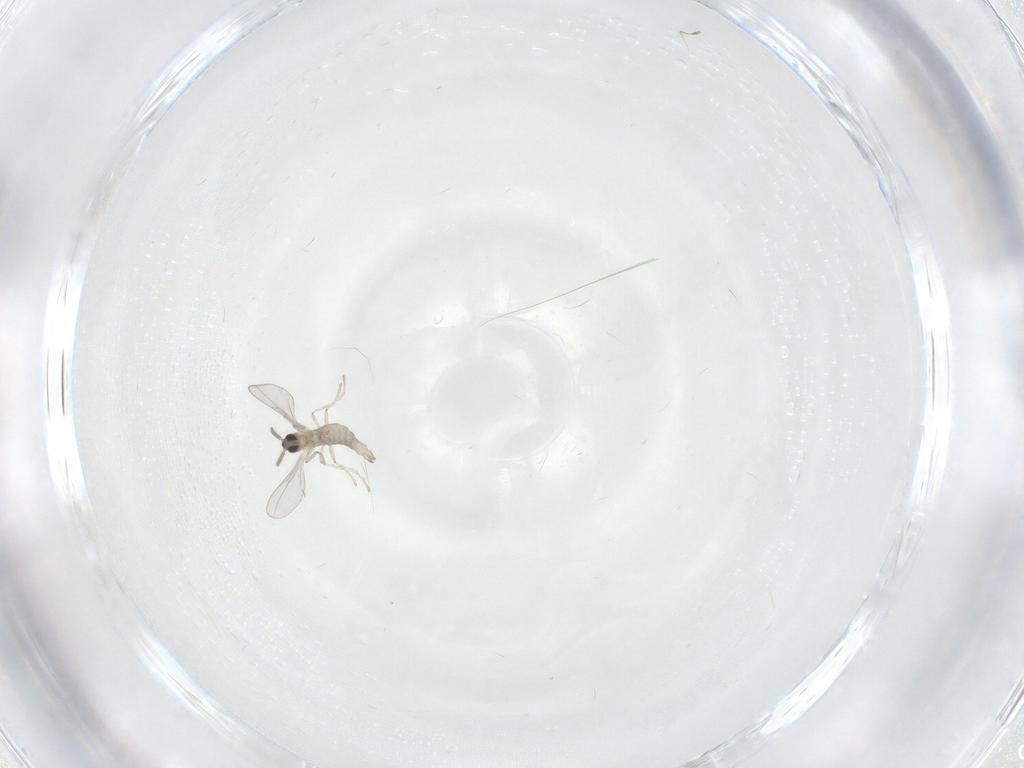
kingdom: Animalia
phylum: Arthropoda
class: Insecta
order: Diptera
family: Cecidomyiidae
